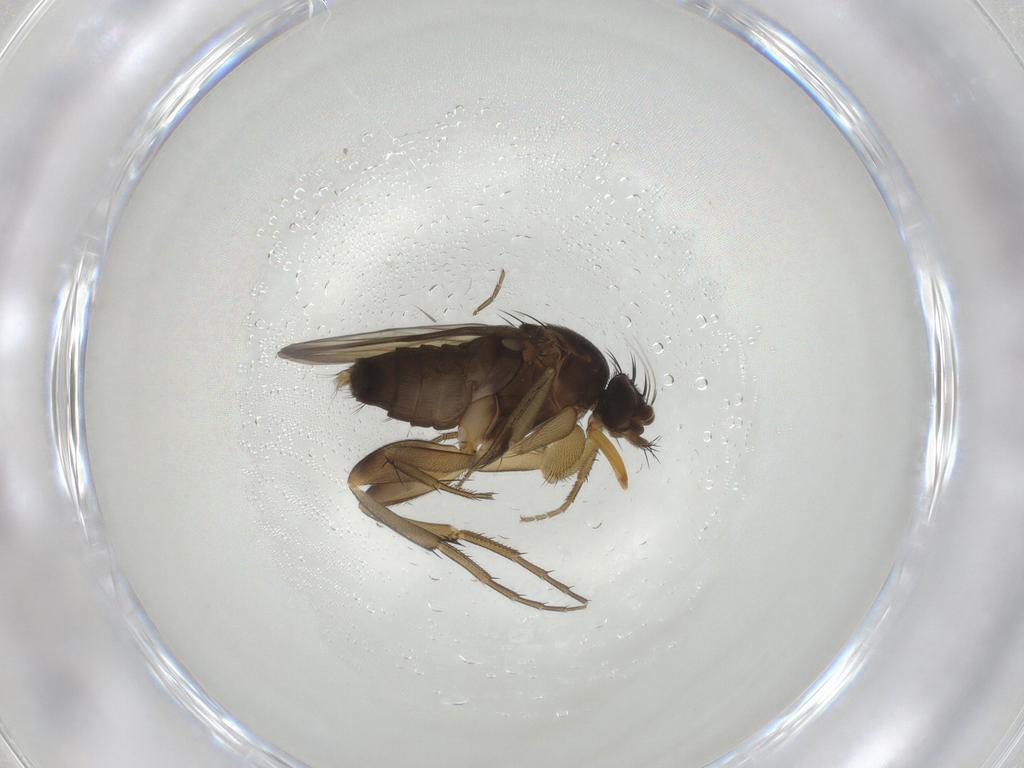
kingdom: Animalia
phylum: Arthropoda
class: Insecta
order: Diptera
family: Phoridae
